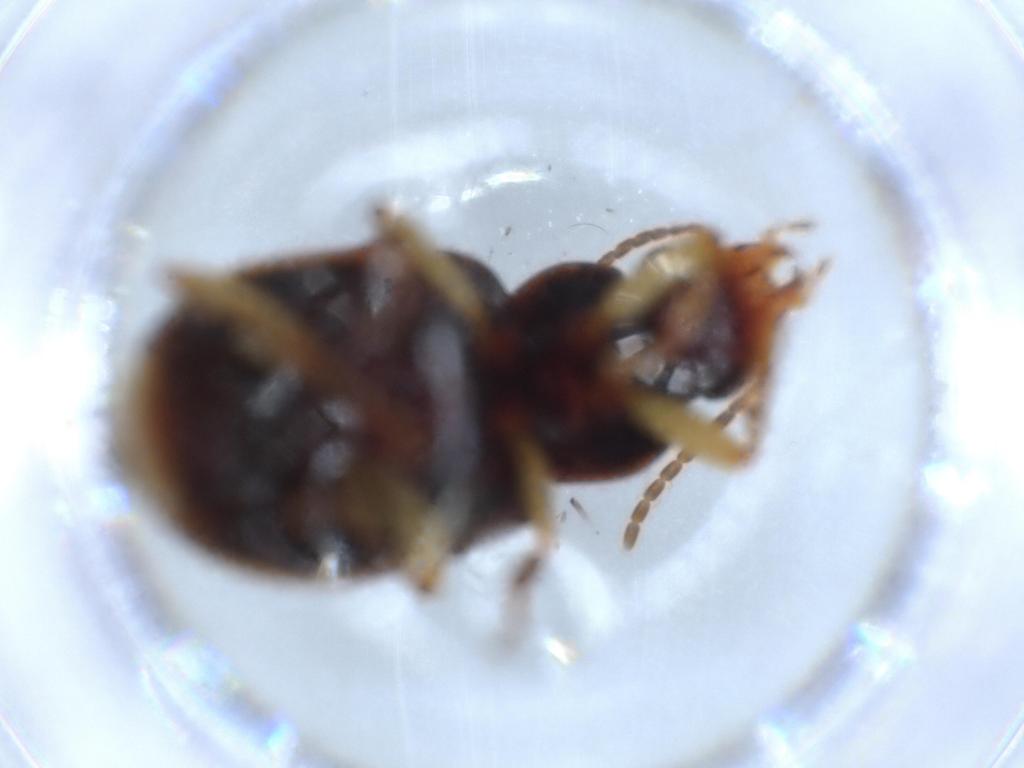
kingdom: Animalia
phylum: Arthropoda
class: Insecta
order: Coleoptera
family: Carabidae
